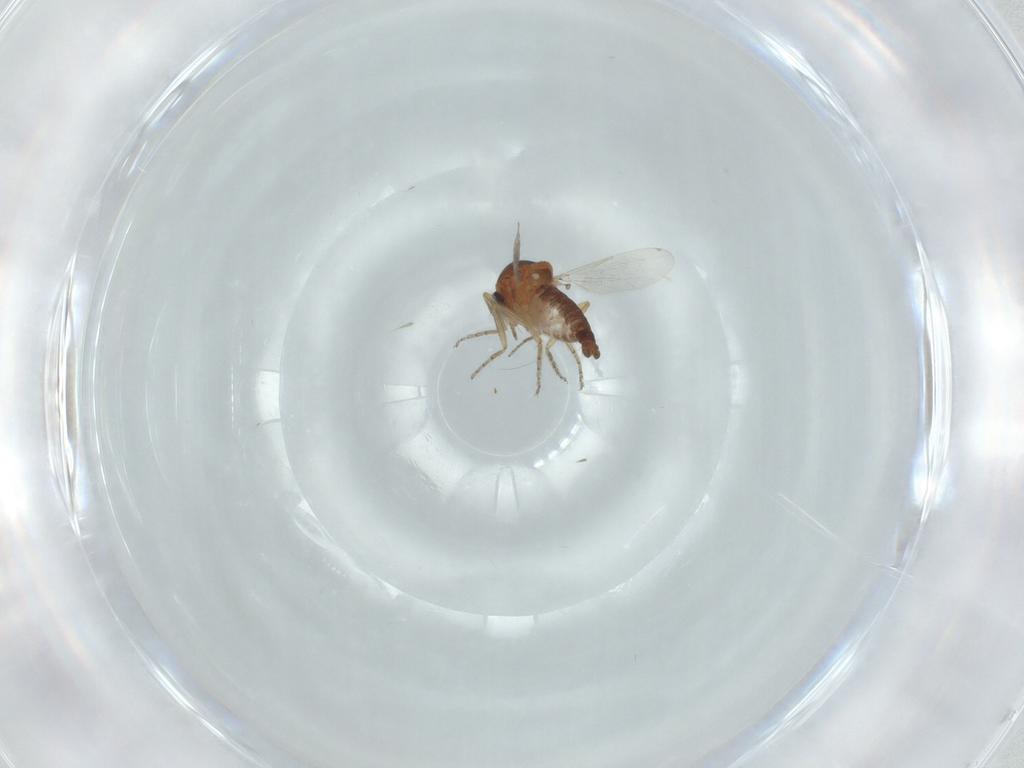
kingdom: Animalia
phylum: Arthropoda
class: Insecta
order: Diptera
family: Ceratopogonidae
